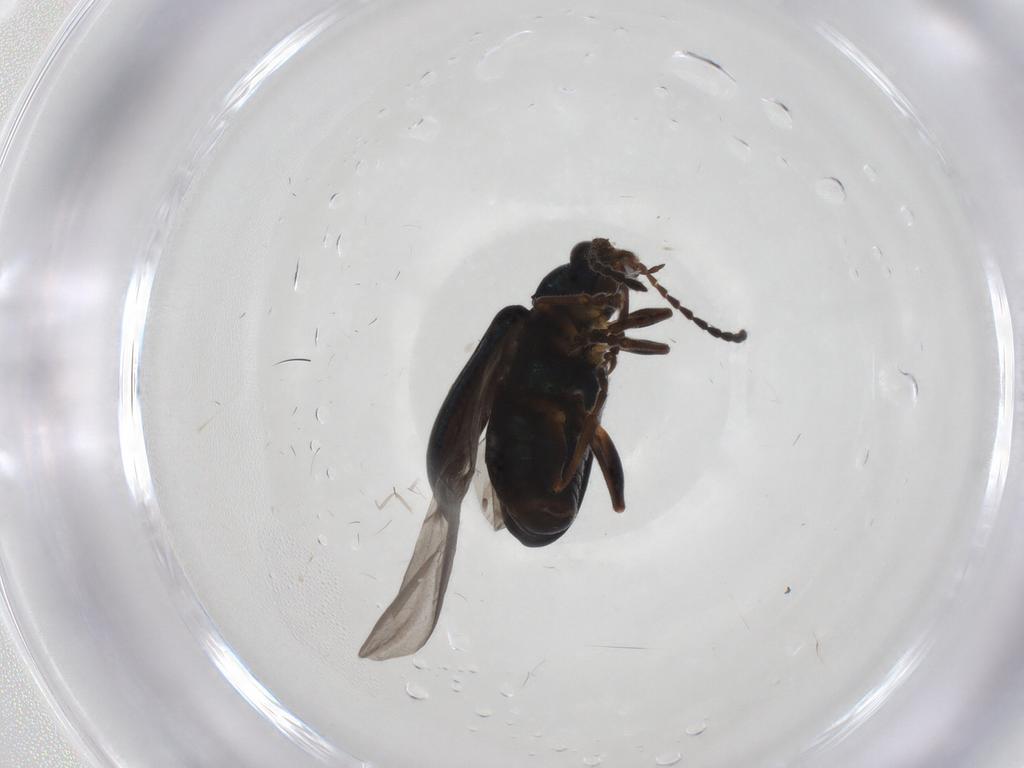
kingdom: Animalia
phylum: Arthropoda
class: Insecta
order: Coleoptera
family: Chrysomelidae
